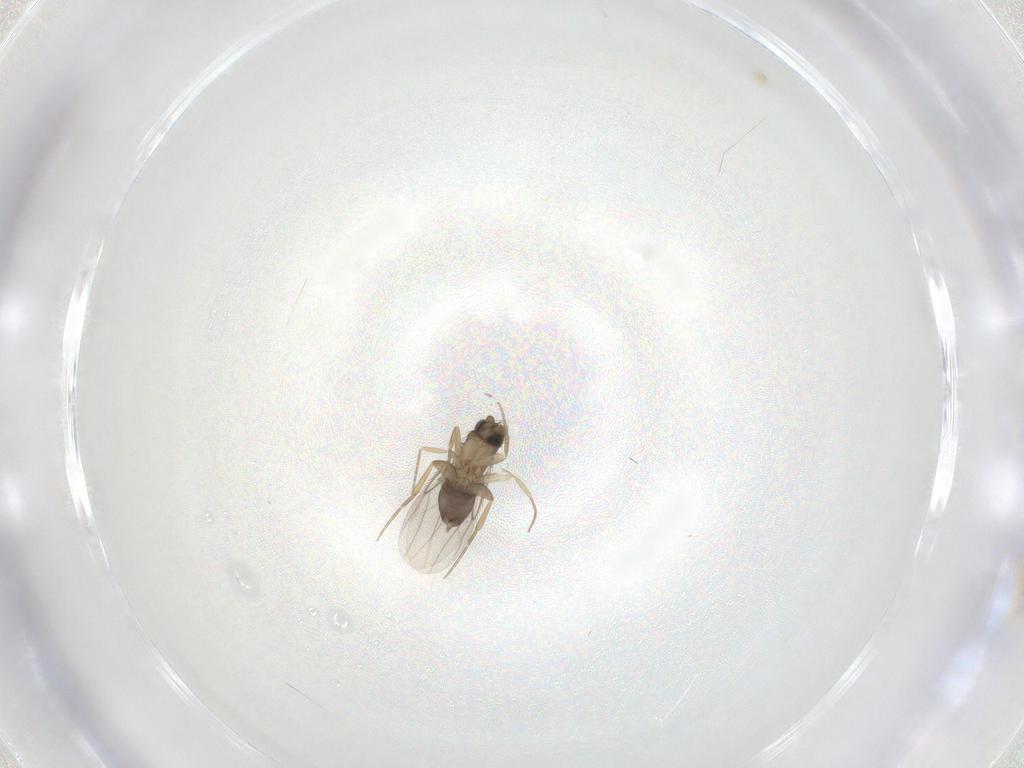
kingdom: Animalia
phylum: Arthropoda
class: Insecta
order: Diptera
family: Phoridae
